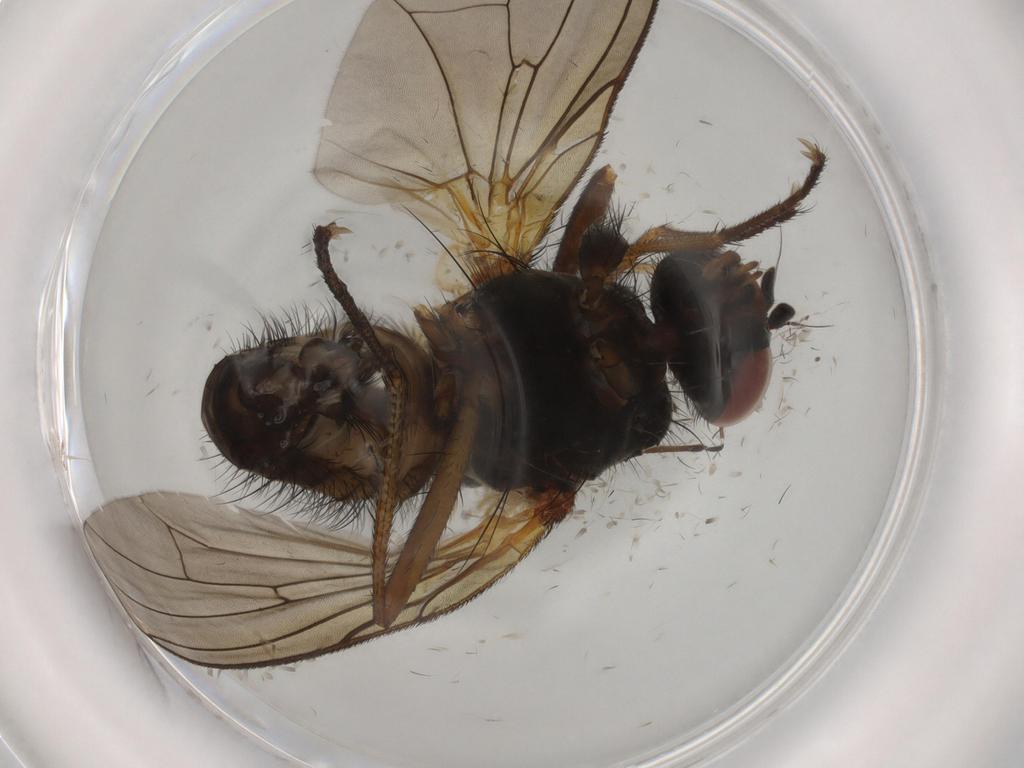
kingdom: Animalia
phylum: Arthropoda
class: Insecta
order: Diptera
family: Anthomyiidae
